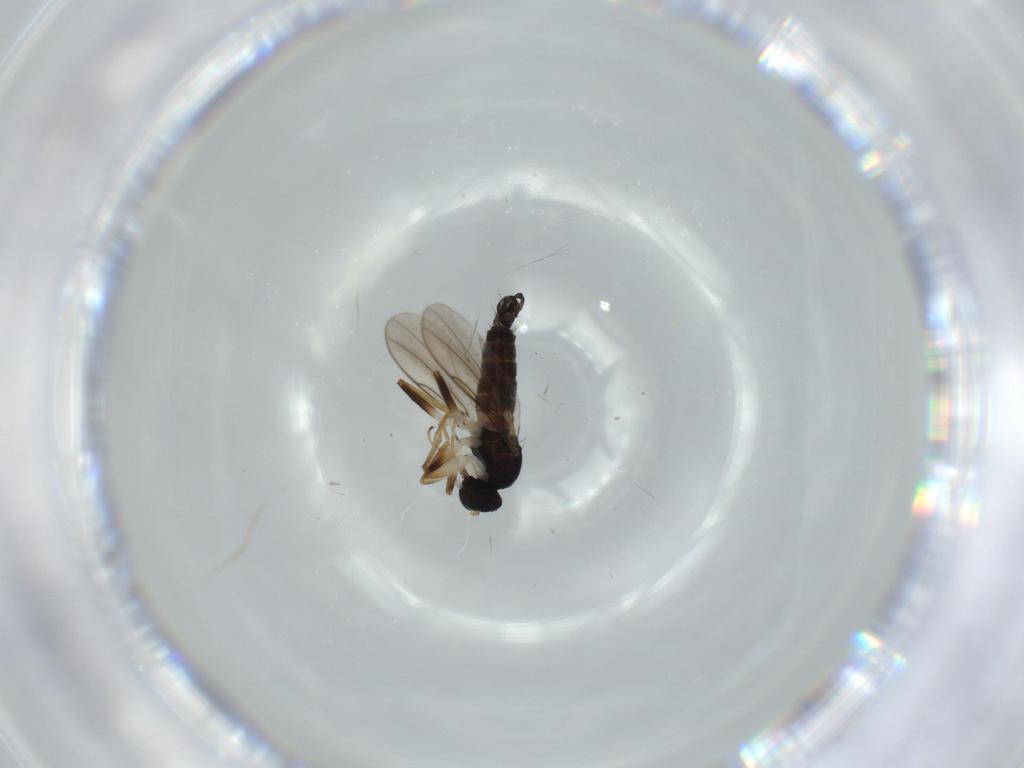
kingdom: Animalia
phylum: Arthropoda
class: Insecta
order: Diptera
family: Hybotidae
